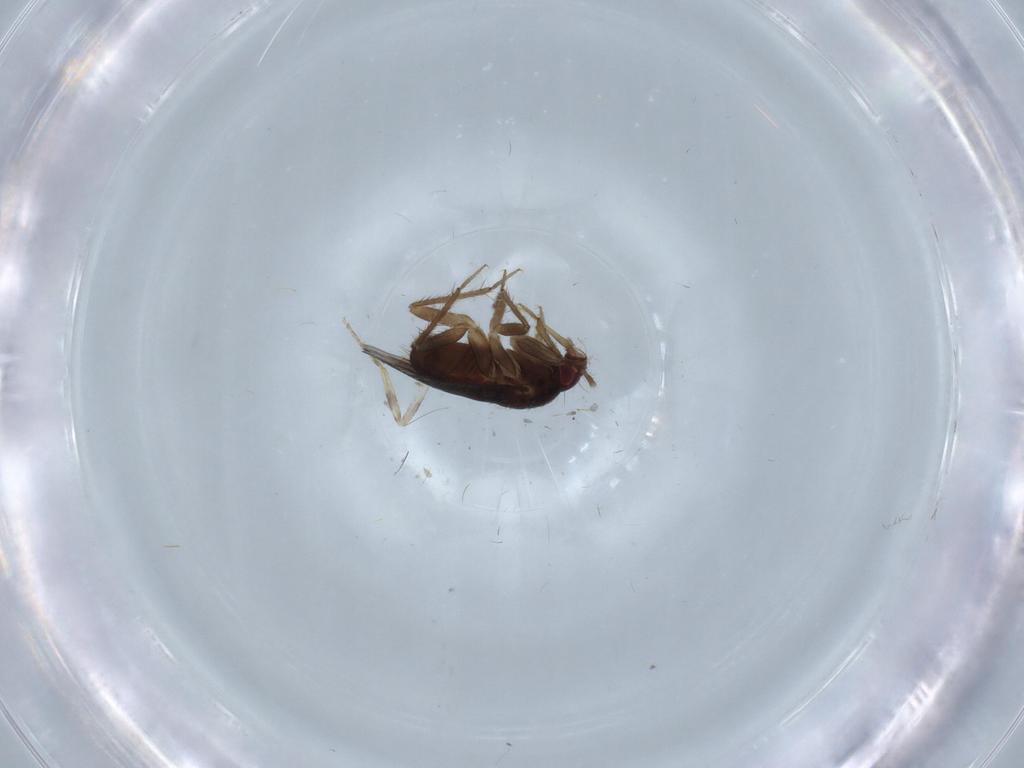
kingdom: Animalia
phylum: Arthropoda
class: Insecta
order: Hemiptera
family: Ceratocombidae
